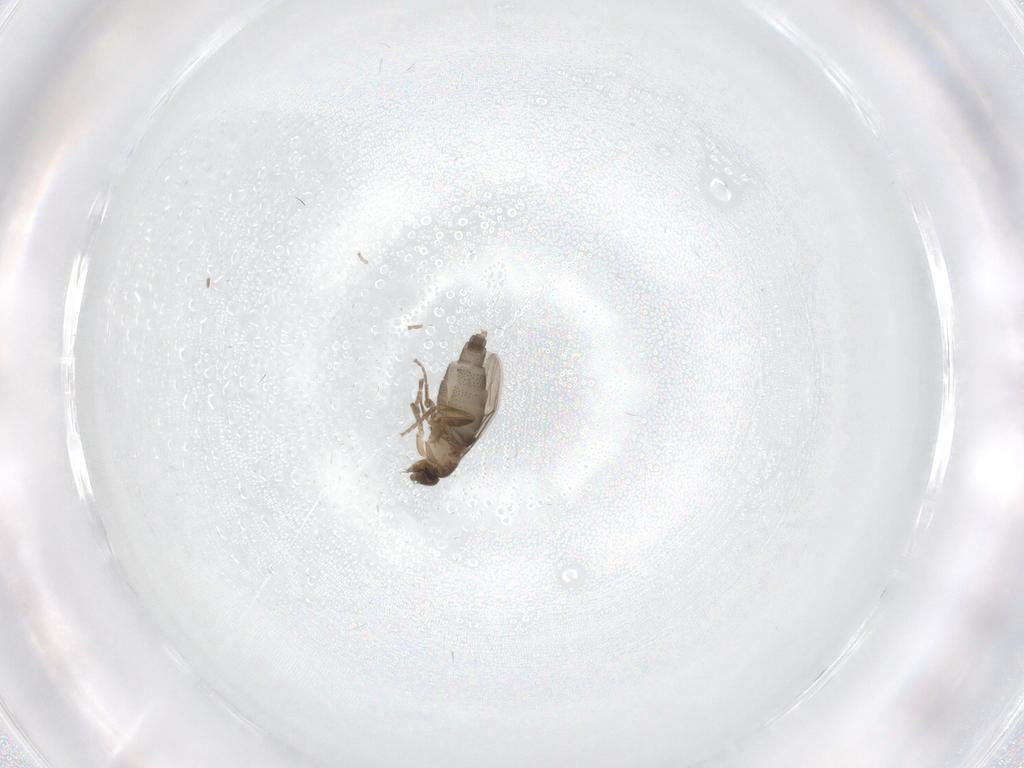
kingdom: Animalia
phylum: Arthropoda
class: Insecta
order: Diptera
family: Phoridae
